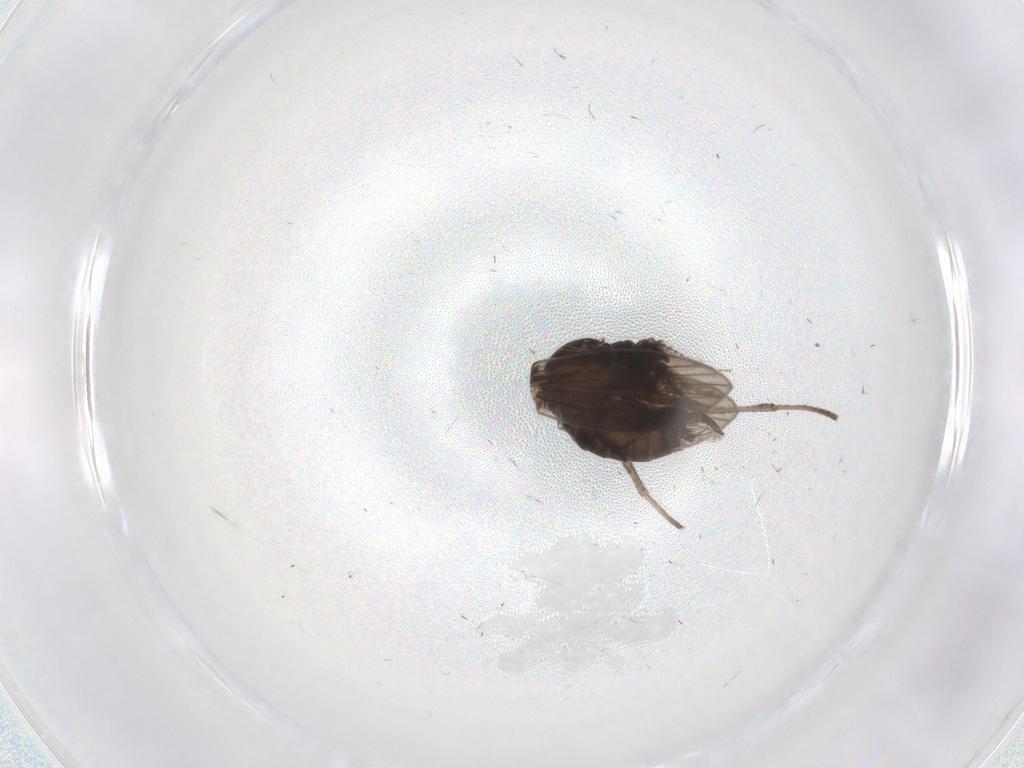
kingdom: Animalia
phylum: Arthropoda
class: Insecta
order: Diptera
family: Psychodidae
